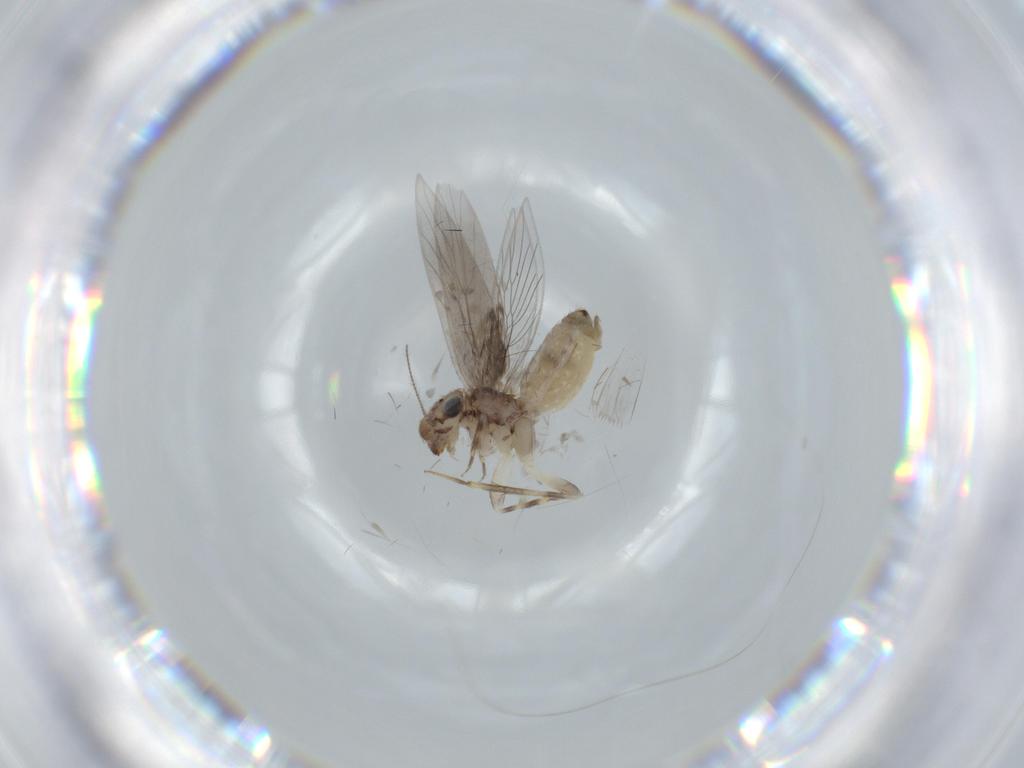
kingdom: Animalia
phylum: Arthropoda
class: Insecta
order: Psocodea
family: Lepidopsocidae
